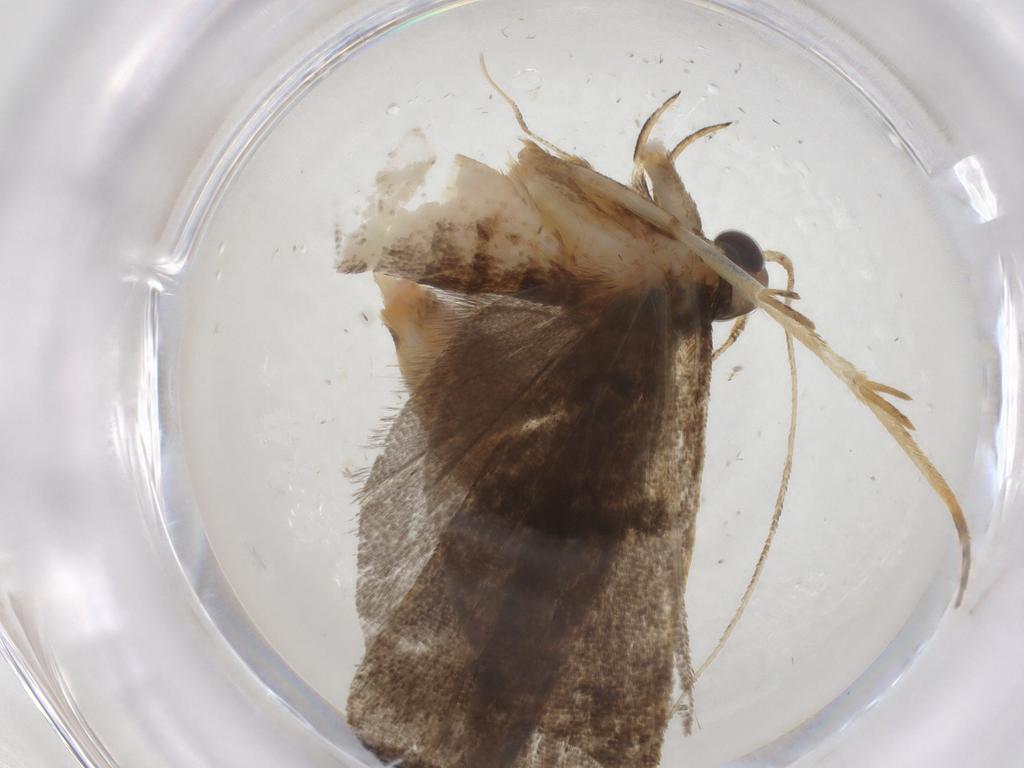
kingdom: Animalia
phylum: Arthropoda
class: Insecta
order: Lepidoptera
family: Autostichidae
